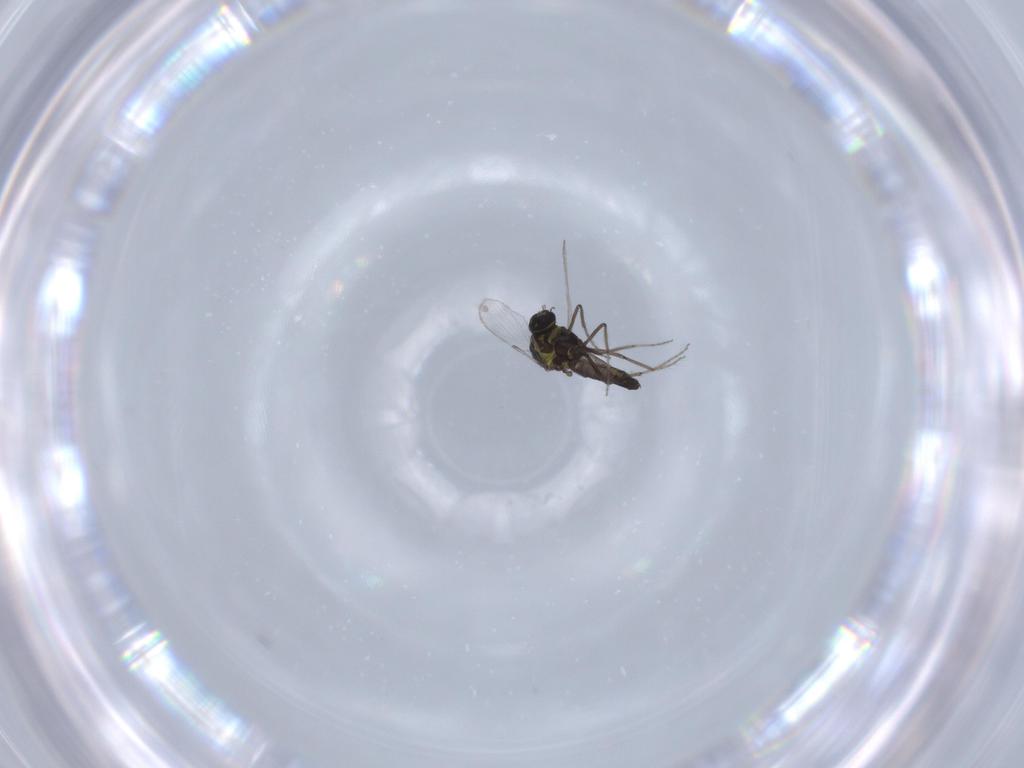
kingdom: Animalia
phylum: Arthropoda
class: Insecta
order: Diptera
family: Ceratopogonidae
